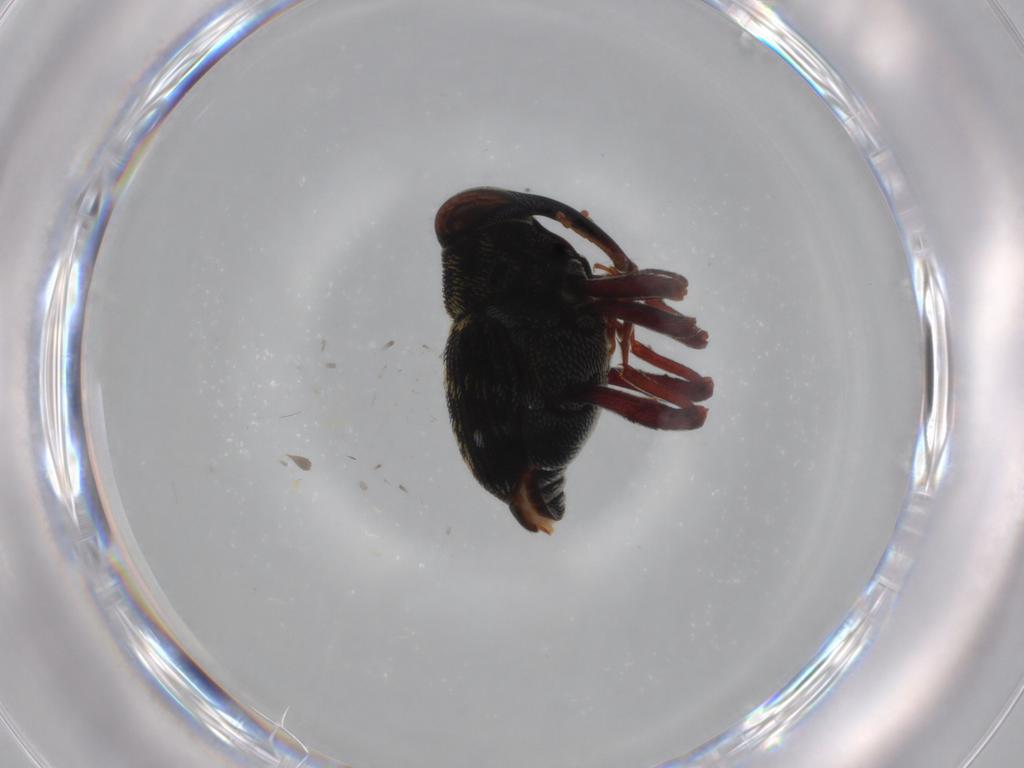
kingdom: Animalia
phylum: Arthropoda
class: Insecta
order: Coleoptera
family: Curculionidae
